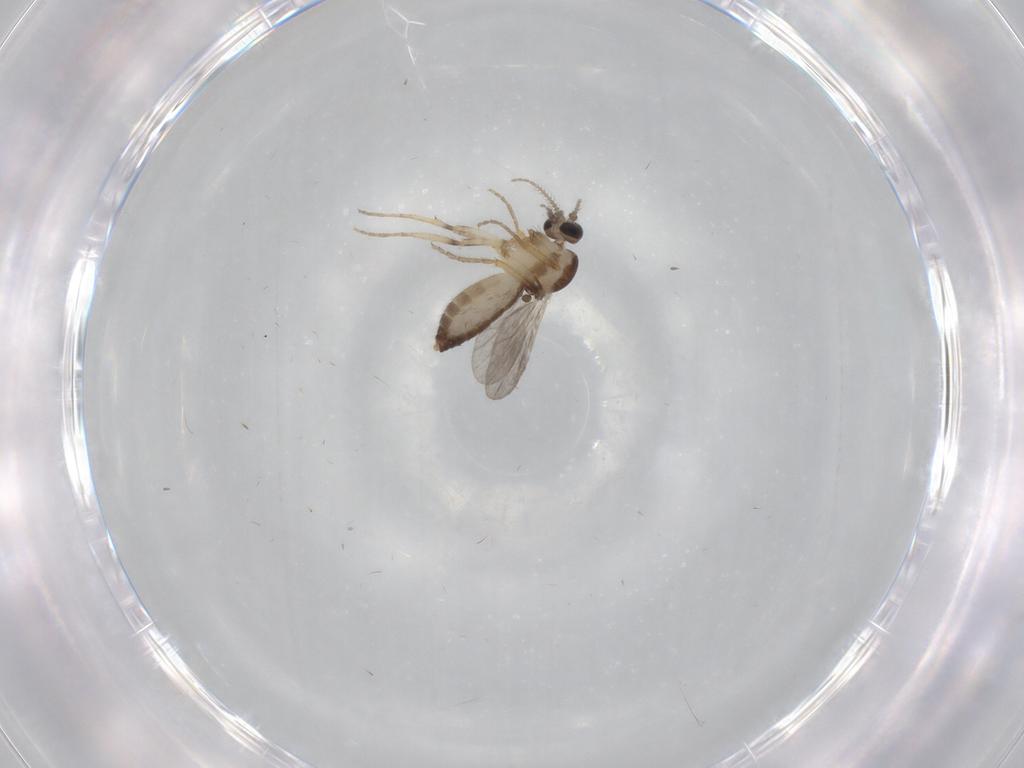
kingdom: Animalia
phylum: Arthropoda
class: Insecta
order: Diptera
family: Ceratopogonidae
